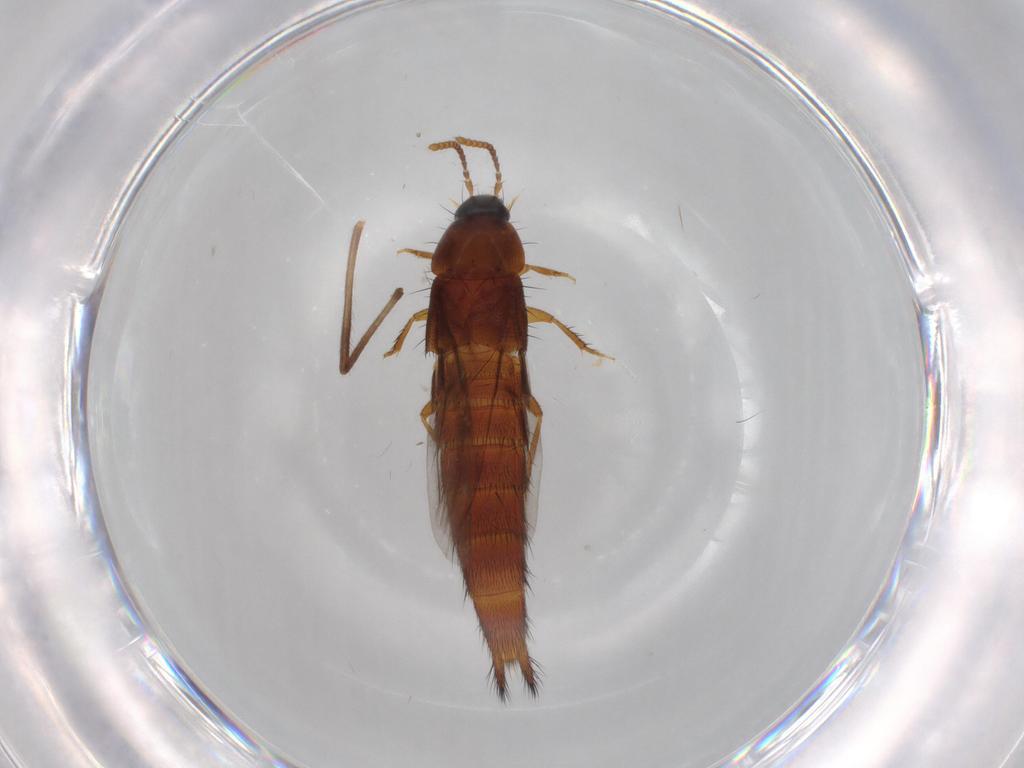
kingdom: Animalia
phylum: Arthropoda
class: Insecta
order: Coleoptera
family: Staphylinidae
